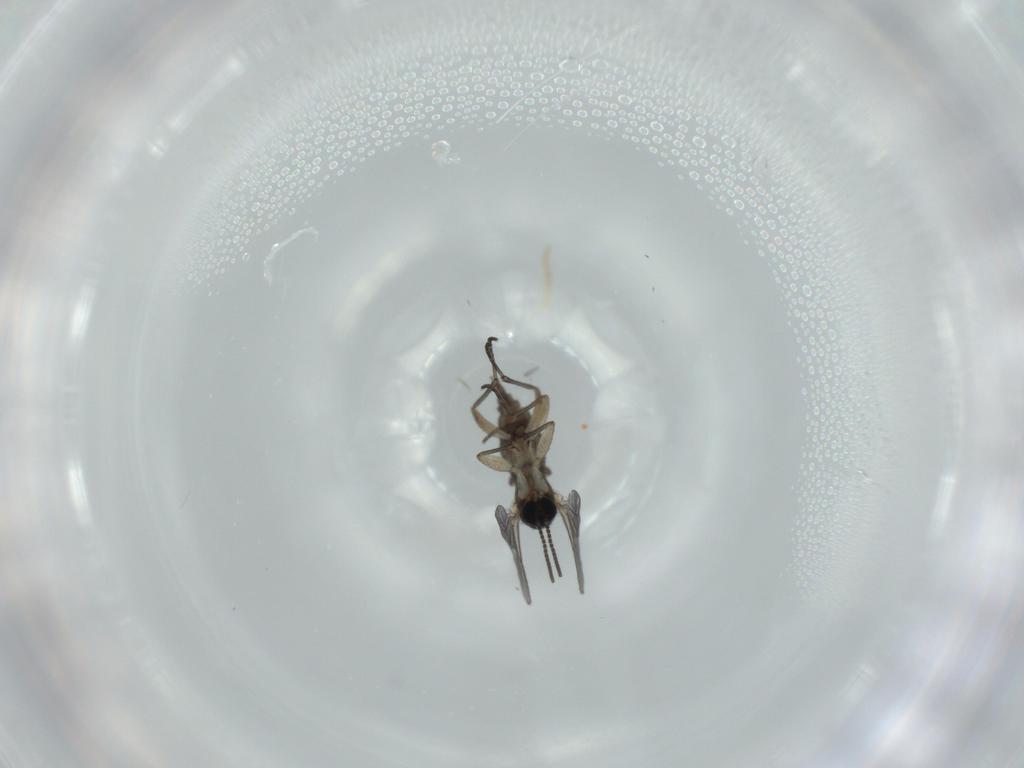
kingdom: Animalia
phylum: Arthropoda
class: Insecta
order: Diptera
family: Sciaridae
